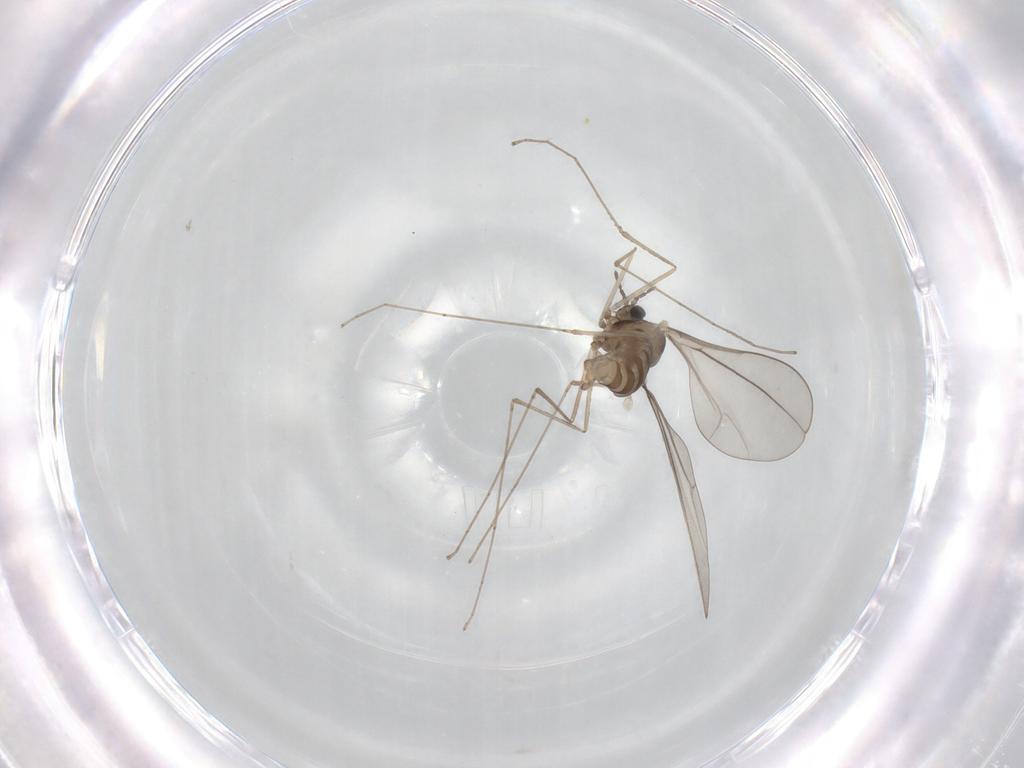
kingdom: Animalia
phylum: Arthropoda
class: Insecta
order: Diptera
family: Cecidomyiidae
